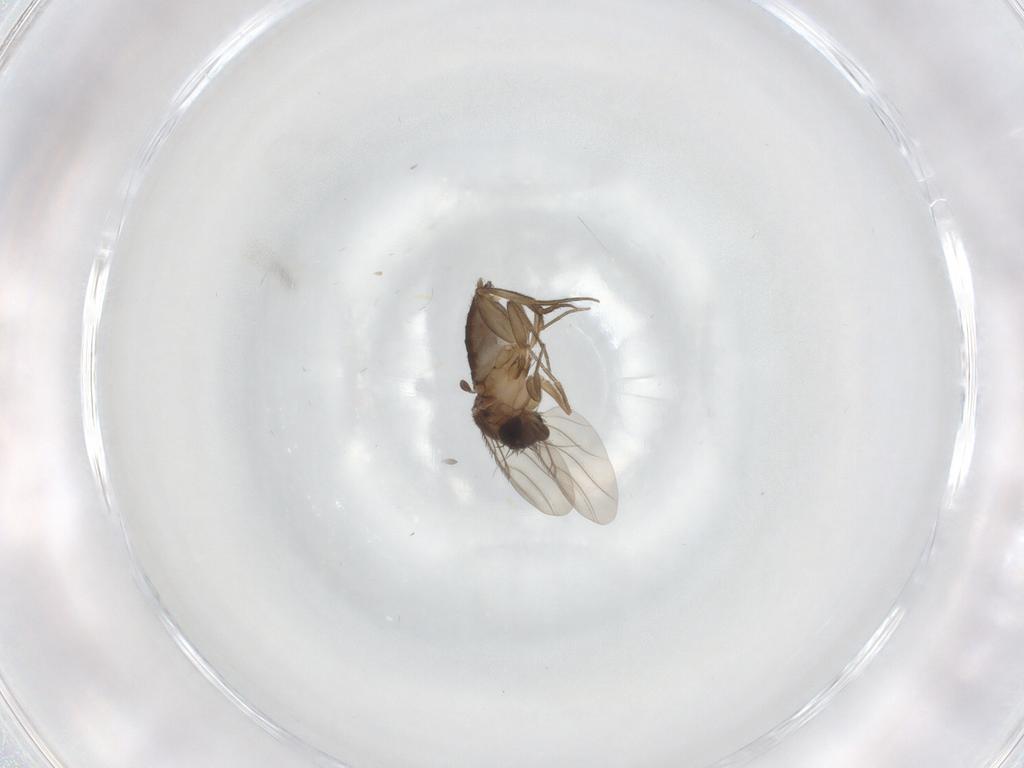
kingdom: Animalia
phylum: Arthropoda
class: Insecta
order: Diptera
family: Phoridae
